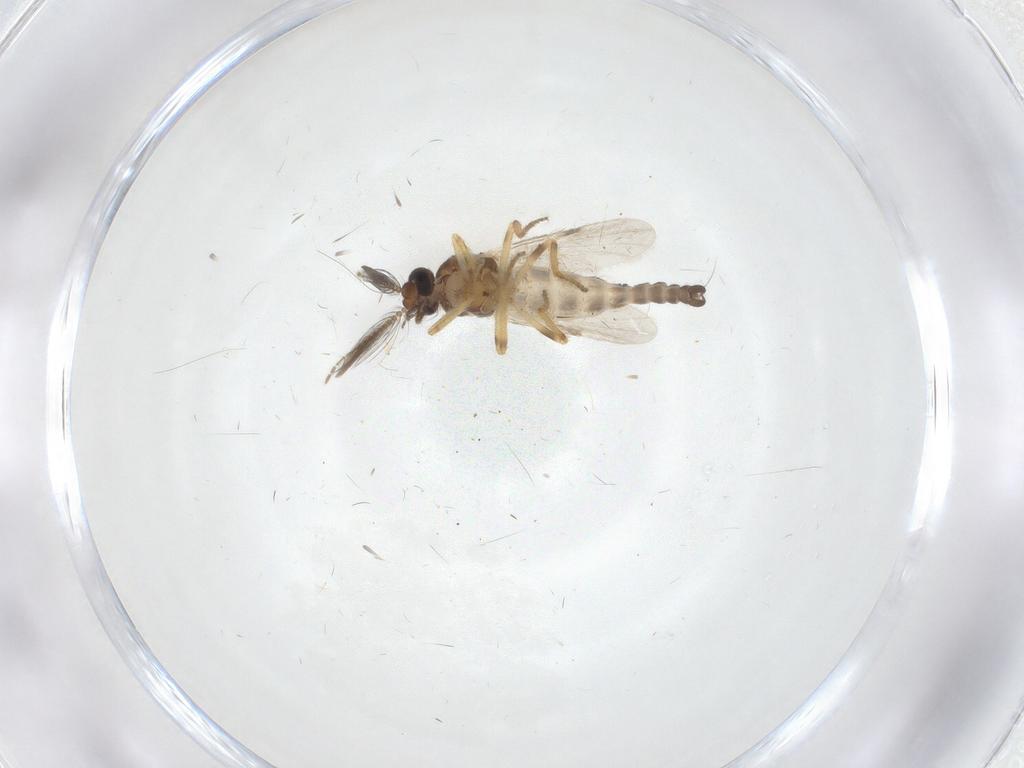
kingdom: Animalia
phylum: Arthropoda
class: Insecta
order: Diptera
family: Ceratopogonidae
